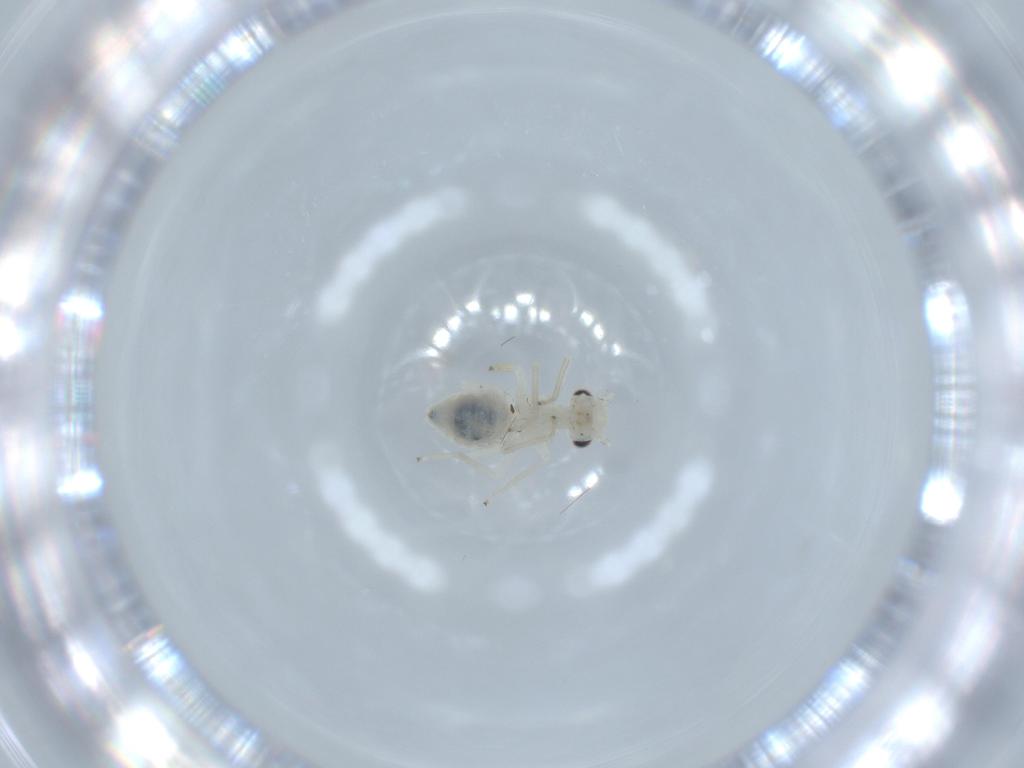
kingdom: Animalia
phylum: Arthropoda
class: Insecta
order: Psocodea
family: Caeciliusidae
